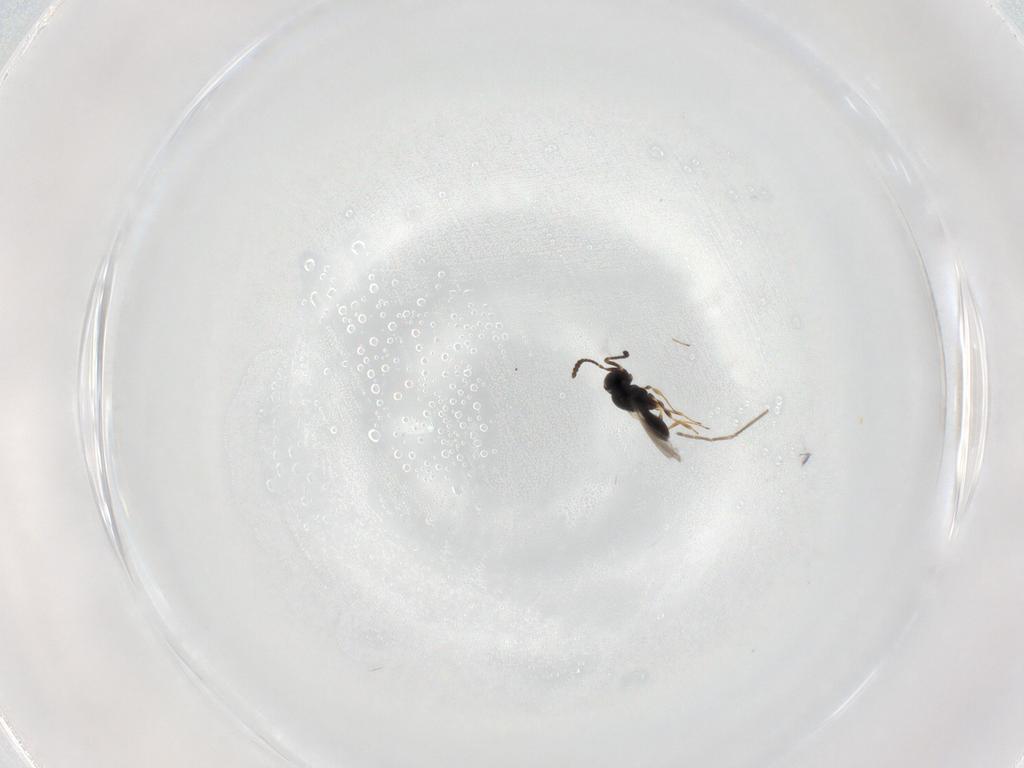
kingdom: Animalia
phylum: Arthropoda
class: Insecta
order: Hymenoptera
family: Scelionidae
